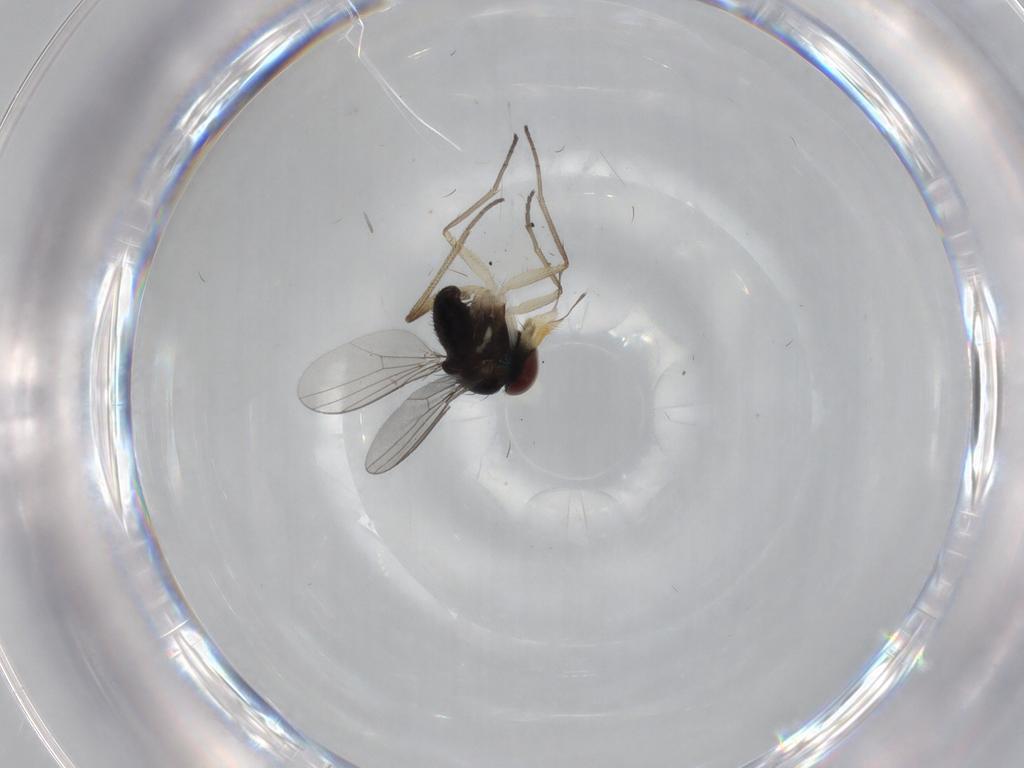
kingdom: Animalia
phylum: Arthropoda
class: Insecta
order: Diptera
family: Dolichopodidae
